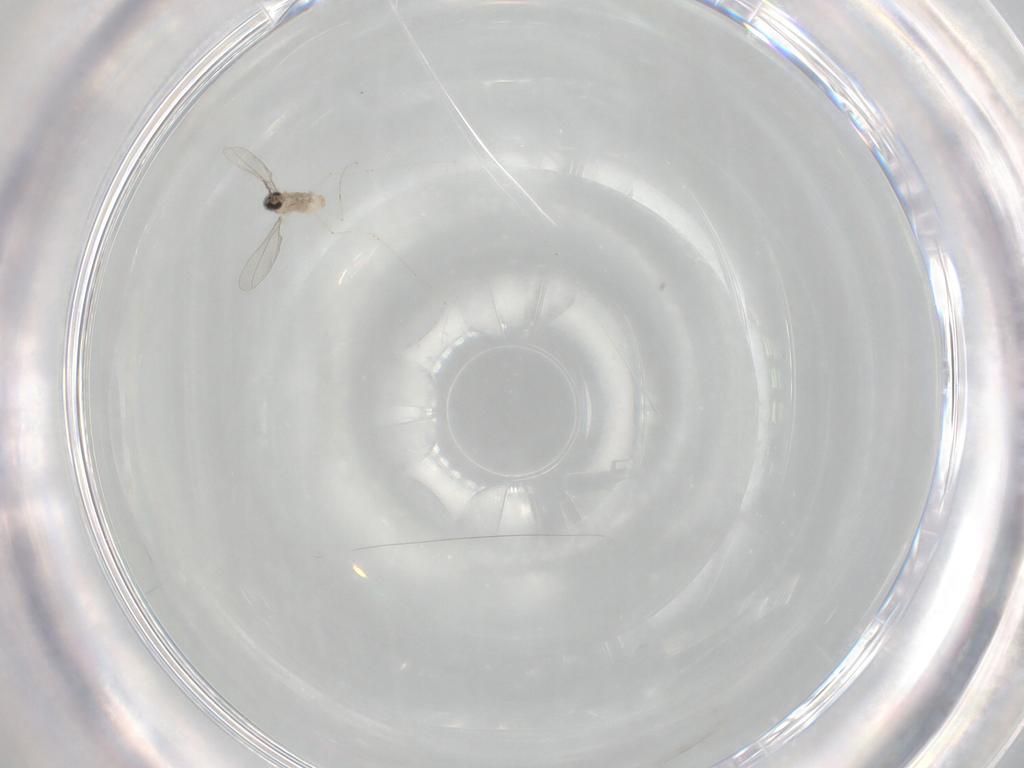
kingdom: Animalia
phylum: Arthropoda
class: Insecta
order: Diptera
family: Cecidomyiidae
